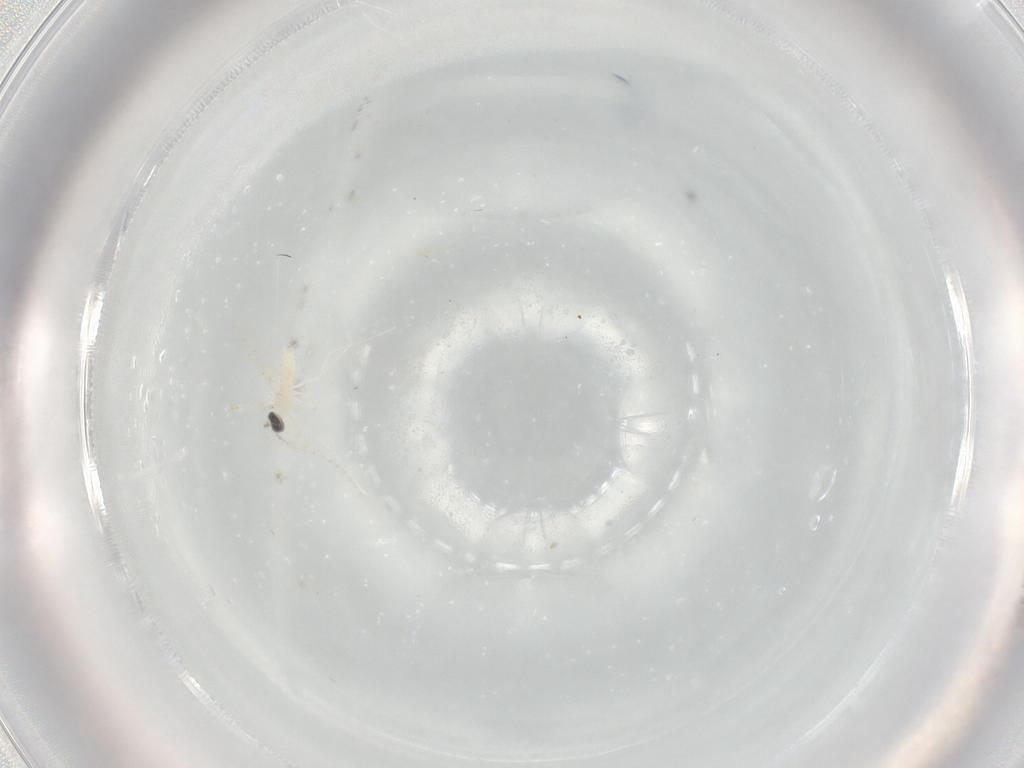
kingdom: Animalia
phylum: Arthropoda
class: Insecta
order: Diptera
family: Cecidomyiidae
